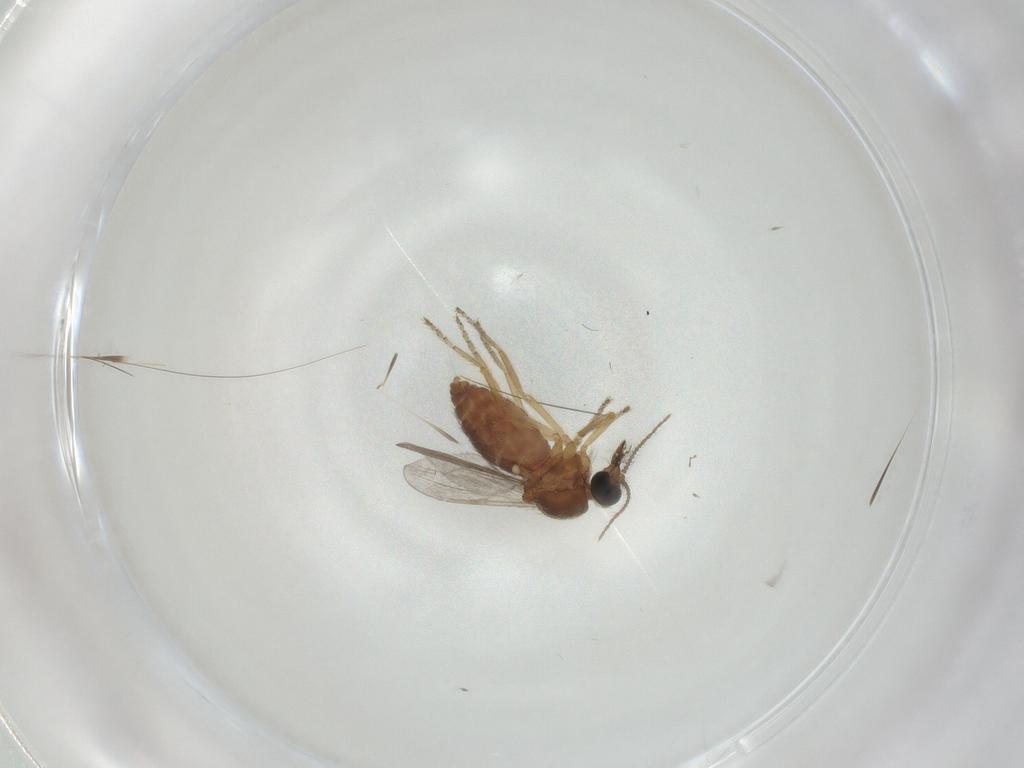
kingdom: Animalia
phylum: Arthropoda
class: Insecta
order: Diptera
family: Ceratopogonidae
